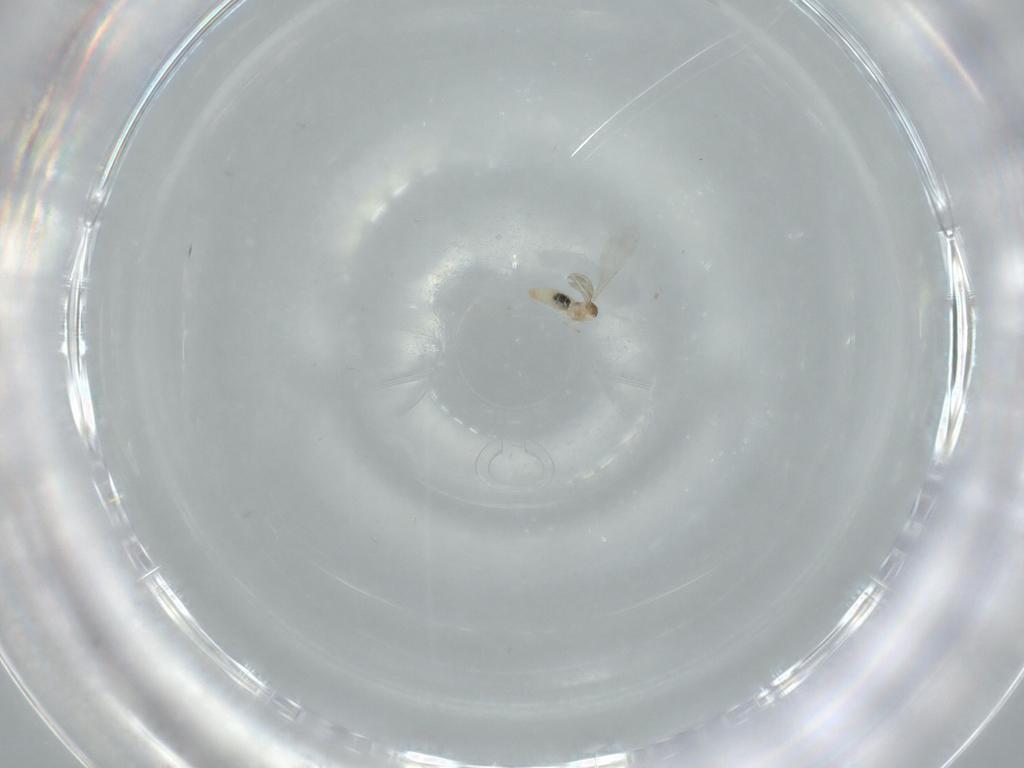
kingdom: Animalia
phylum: Arthropoda
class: Insecta
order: Diptera
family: Cecidomyiidae
